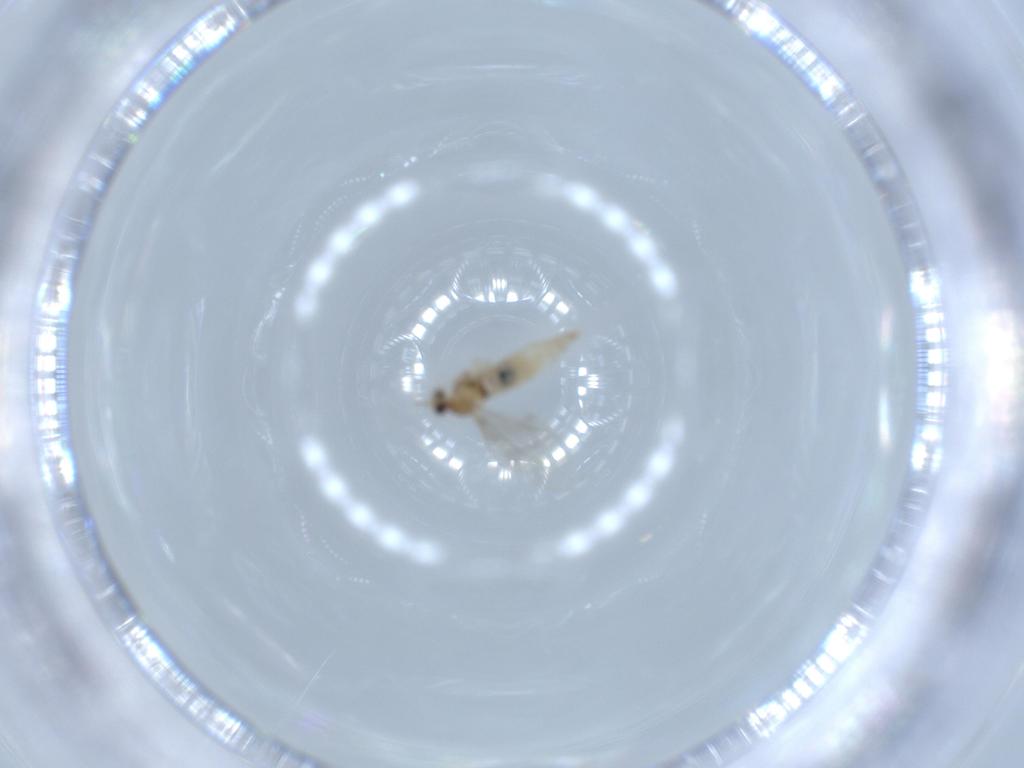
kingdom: Animalia
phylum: Arthropoda
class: Insecta
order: Diptera
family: Cecidomyiidae
